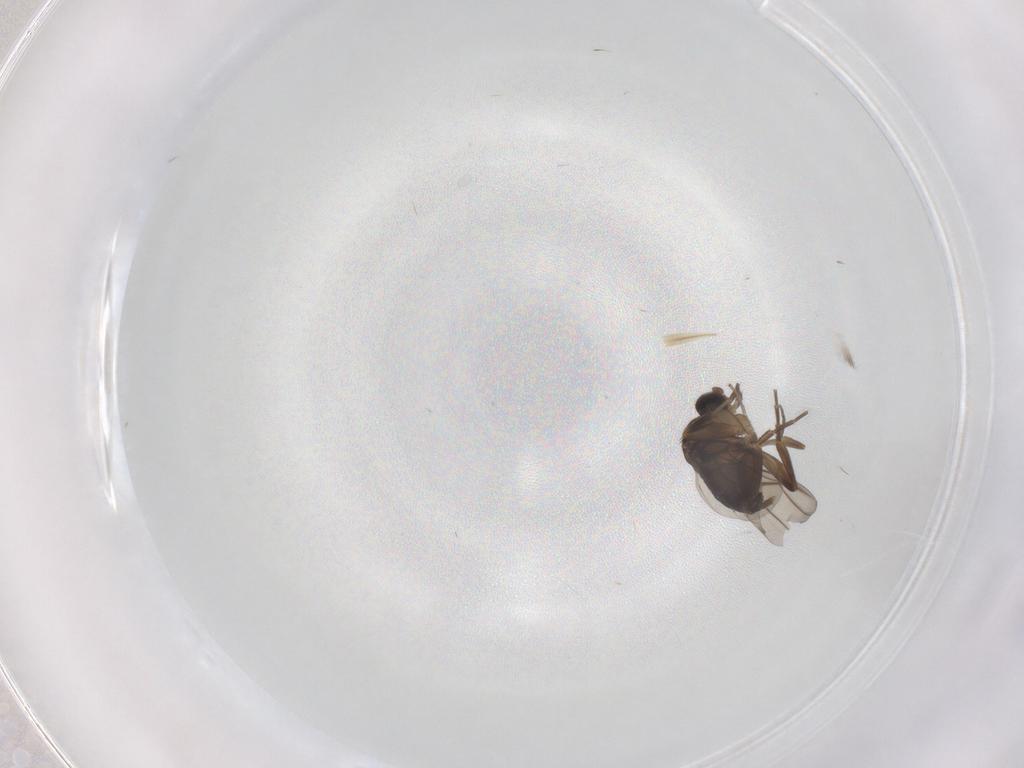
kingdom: Animalia
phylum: Arthropoda
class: Insecta
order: Diptera
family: Phoridae
